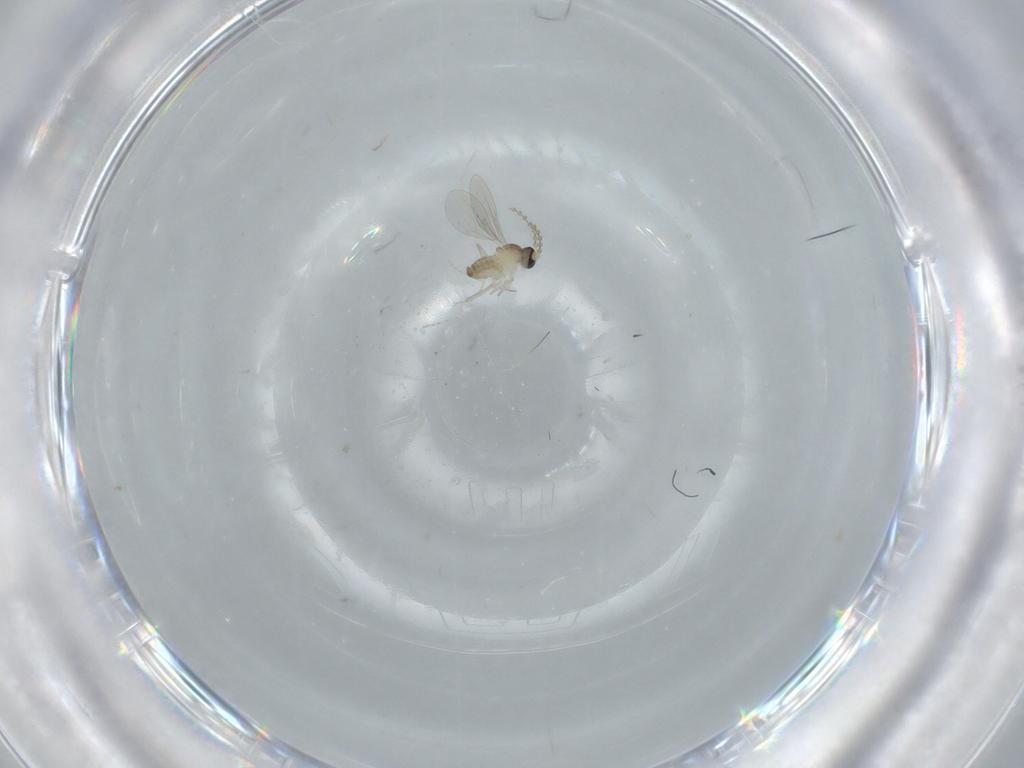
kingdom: Animalia
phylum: Arthropoda
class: Insecta
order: Diptera
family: Cecidomyiidae
